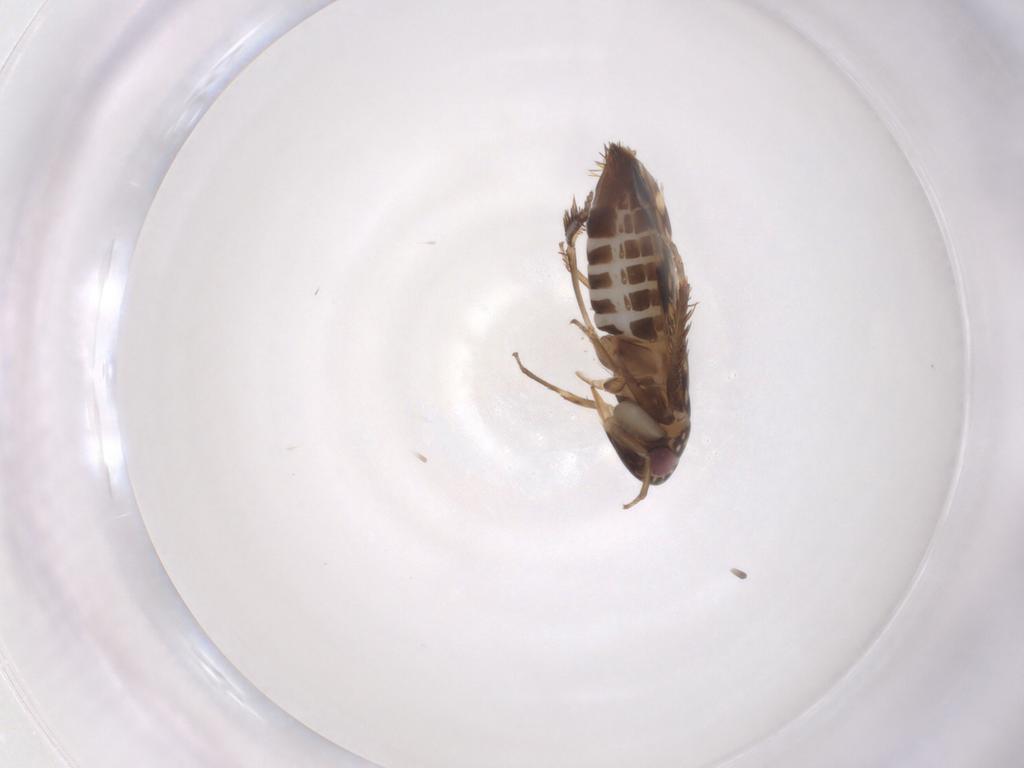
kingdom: Animalia
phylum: Arthropoda
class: Insecta
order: Hemiptera
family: Cicadellidae
